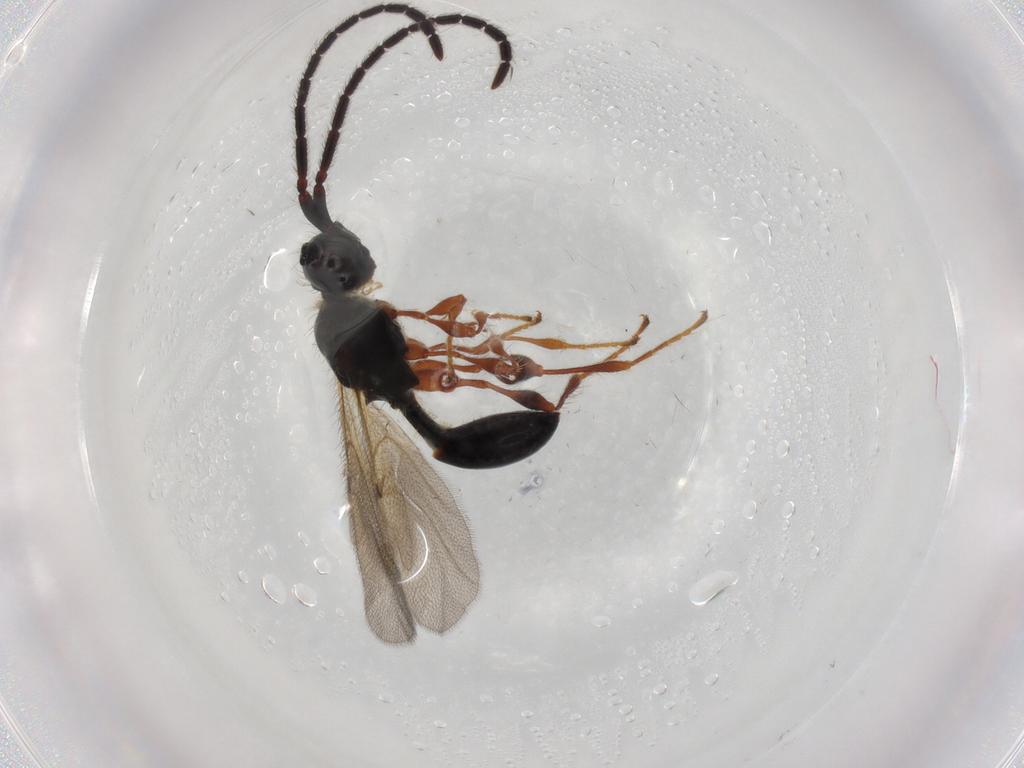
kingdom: Animalia
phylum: Arthropoda
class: Insecta
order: Hymenoptera
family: Diapriidae
